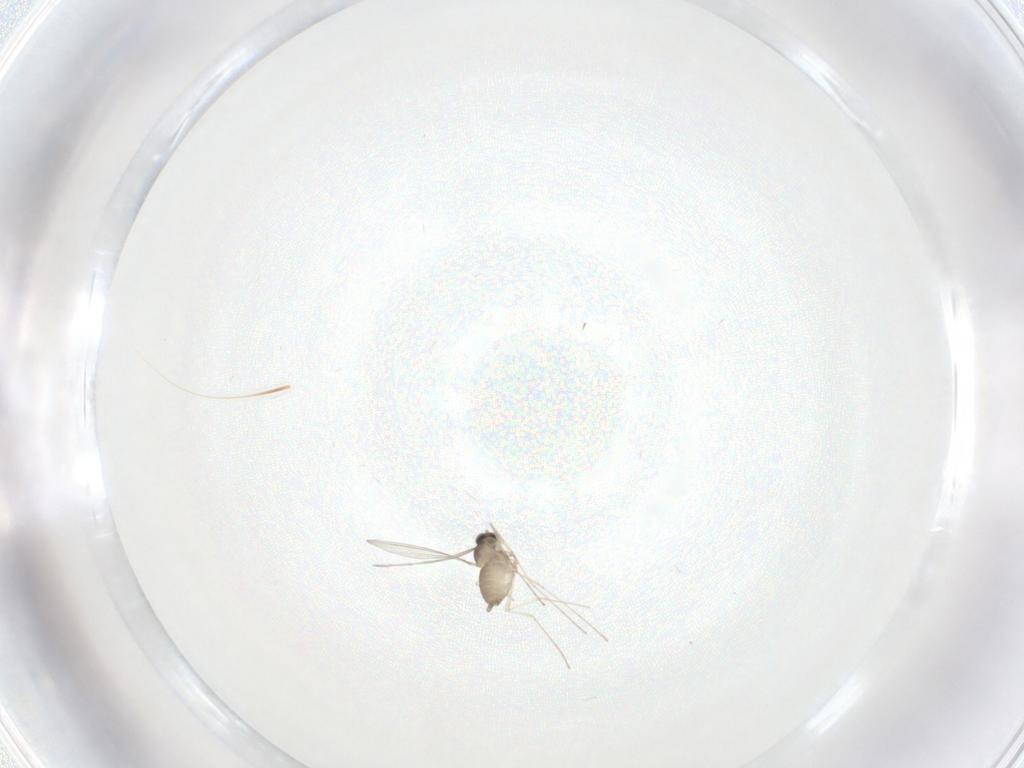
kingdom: Animalia
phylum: Arthropoda
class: Insecta
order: Diptera
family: Cecidomyiidae
